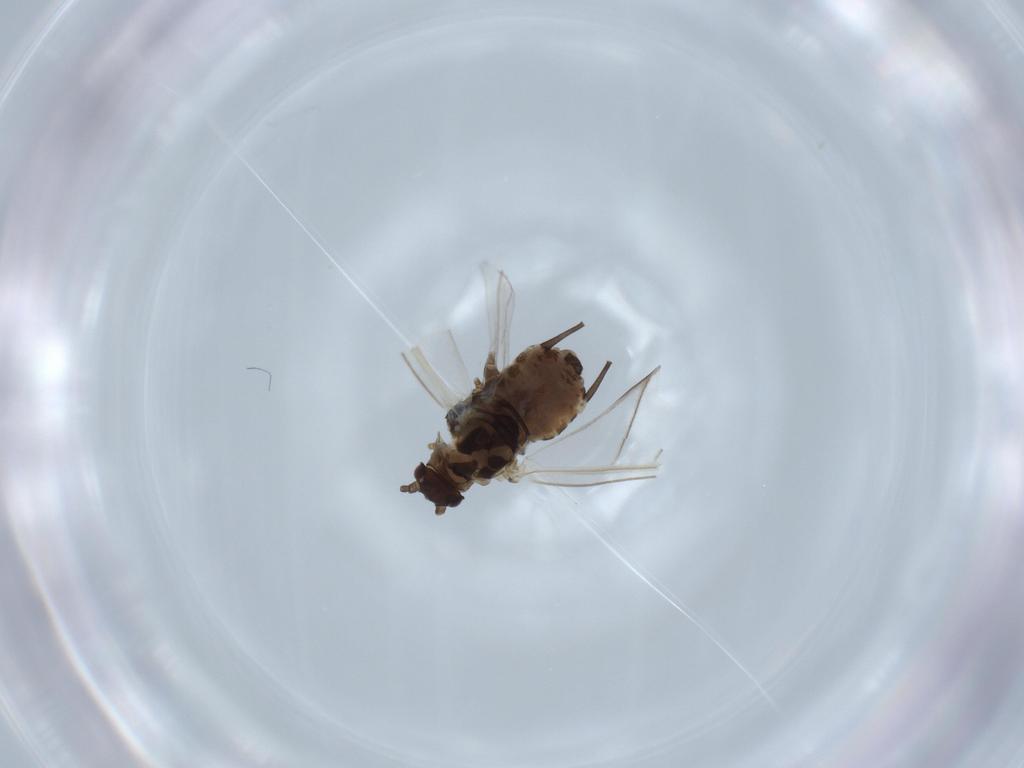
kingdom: Animalia
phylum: Arthropoda
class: Insecta
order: Hemiptera
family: Aphididae
